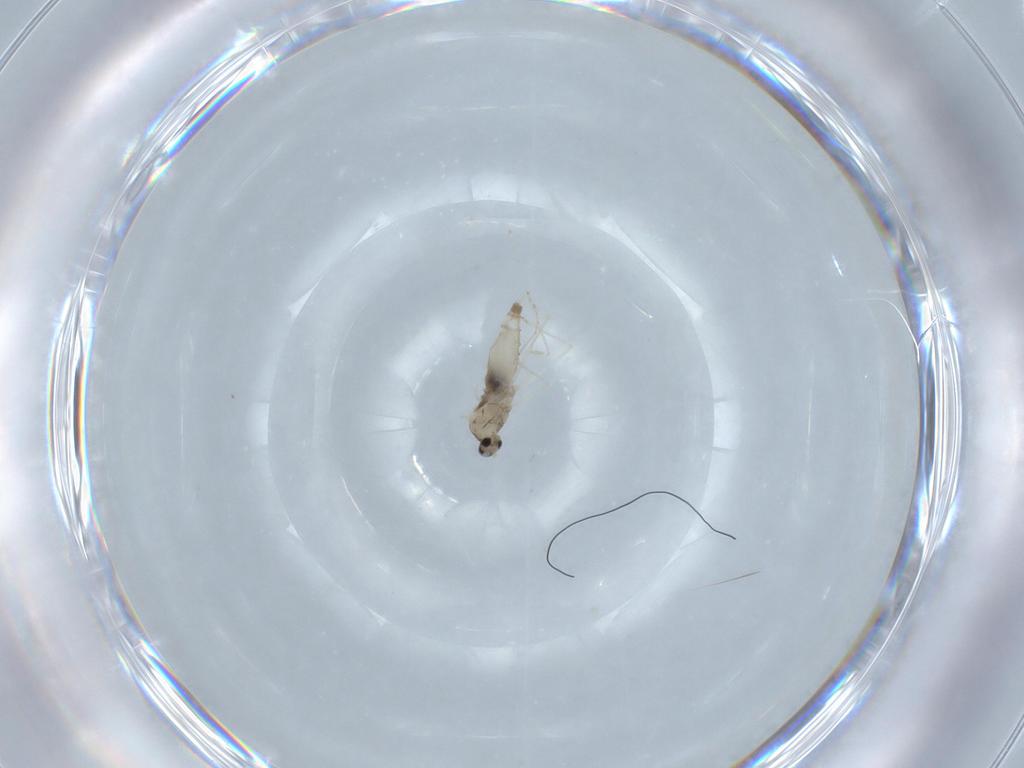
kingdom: Animalia
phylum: Arthropoda
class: Insecta
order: Diptera
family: Cecidomyiidae
